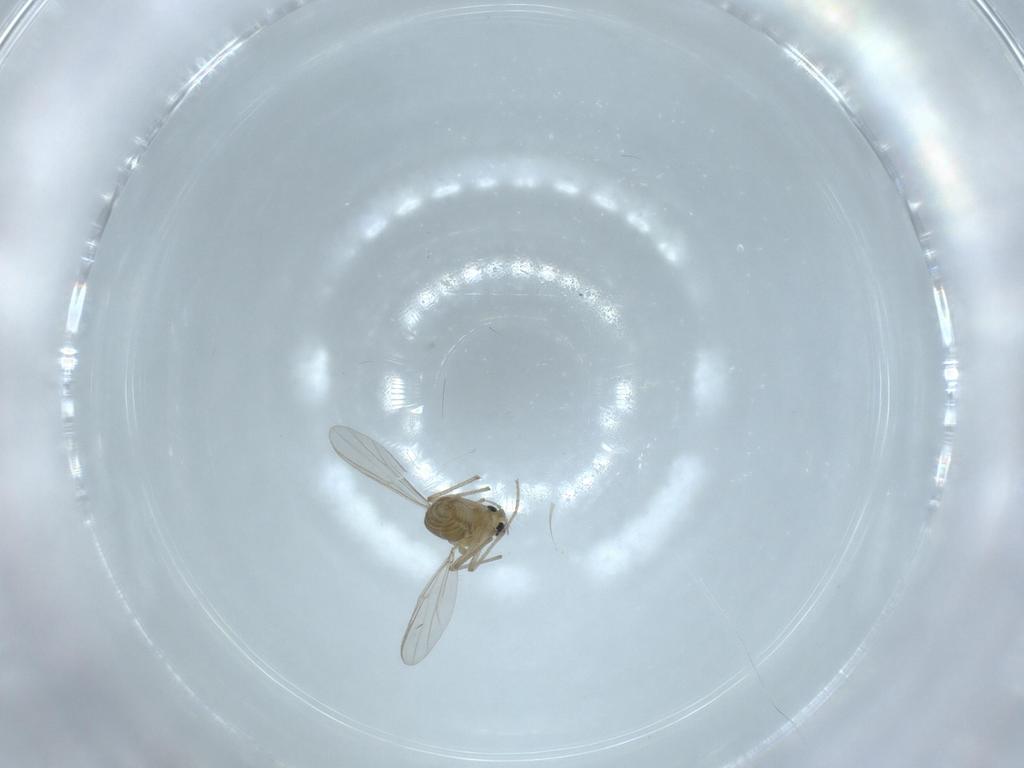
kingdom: Animalia
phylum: Arthropoda
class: Insecta
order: Diptera
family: Chironomidae
